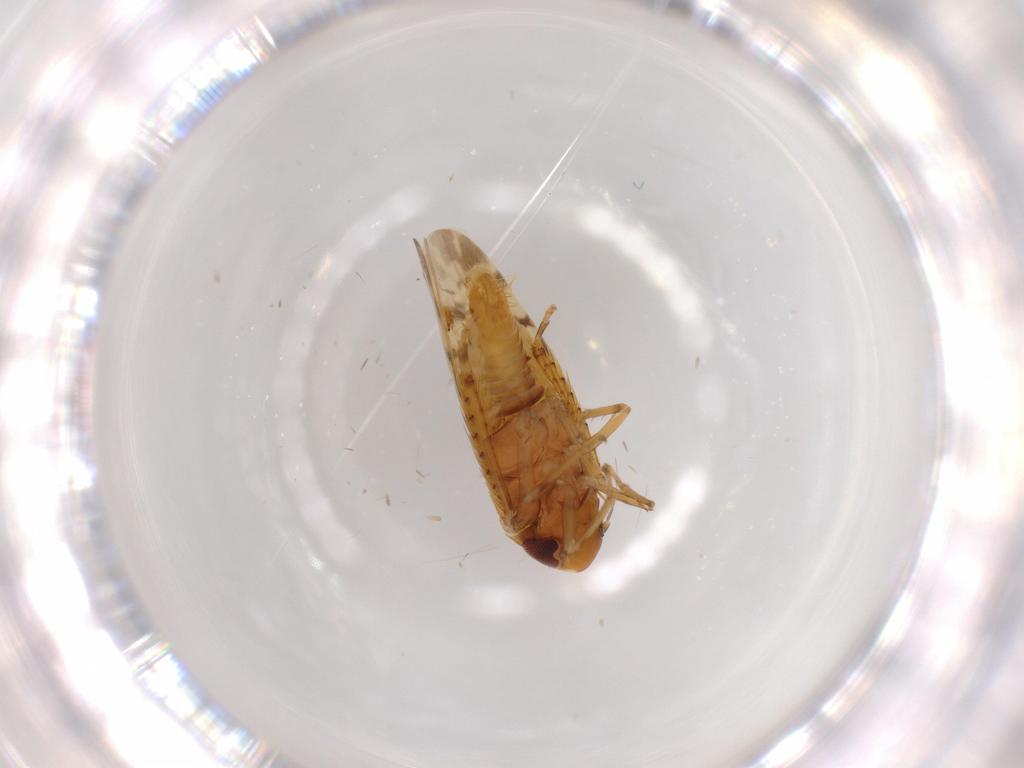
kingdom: Animalia
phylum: Arthropoda
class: Insecta
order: Hemiptera
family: Cicadellidae
